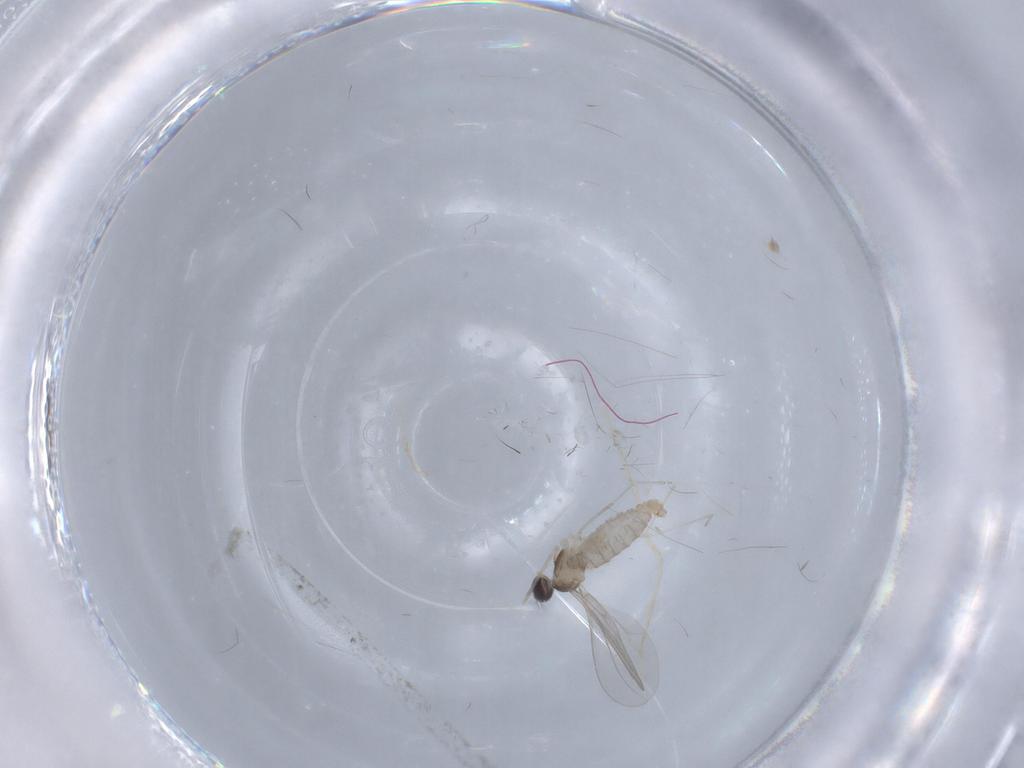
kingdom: Animalia
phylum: Arthropoda
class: Insecta
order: Diptera
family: Cecidomyiidae
